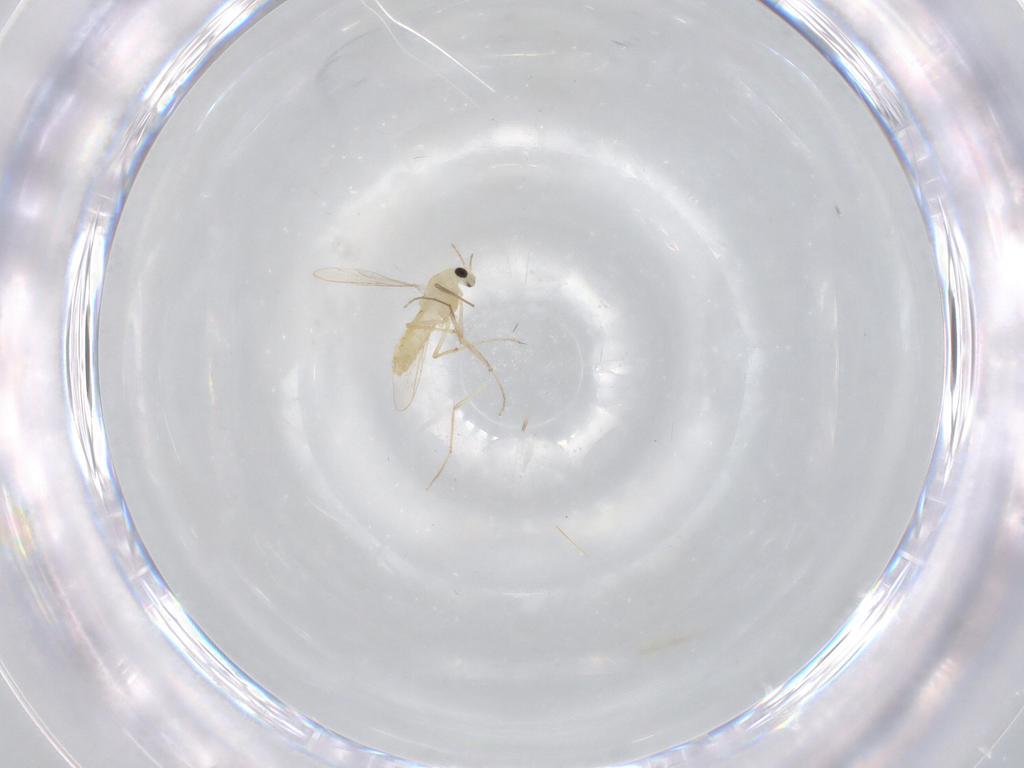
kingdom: Animalia
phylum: Arthropoda
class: Insecta
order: Diptera
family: Chironomidae
